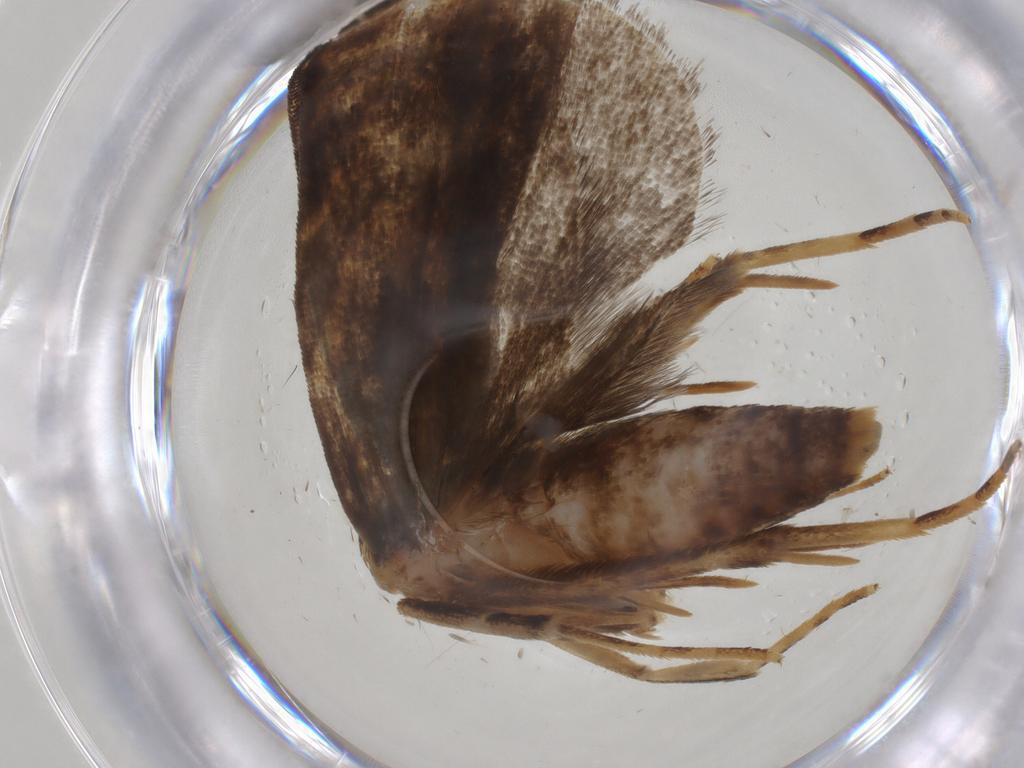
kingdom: Animalia
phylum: Arthropoda
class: Insecta
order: Lepidoptera
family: Gelechiidae
